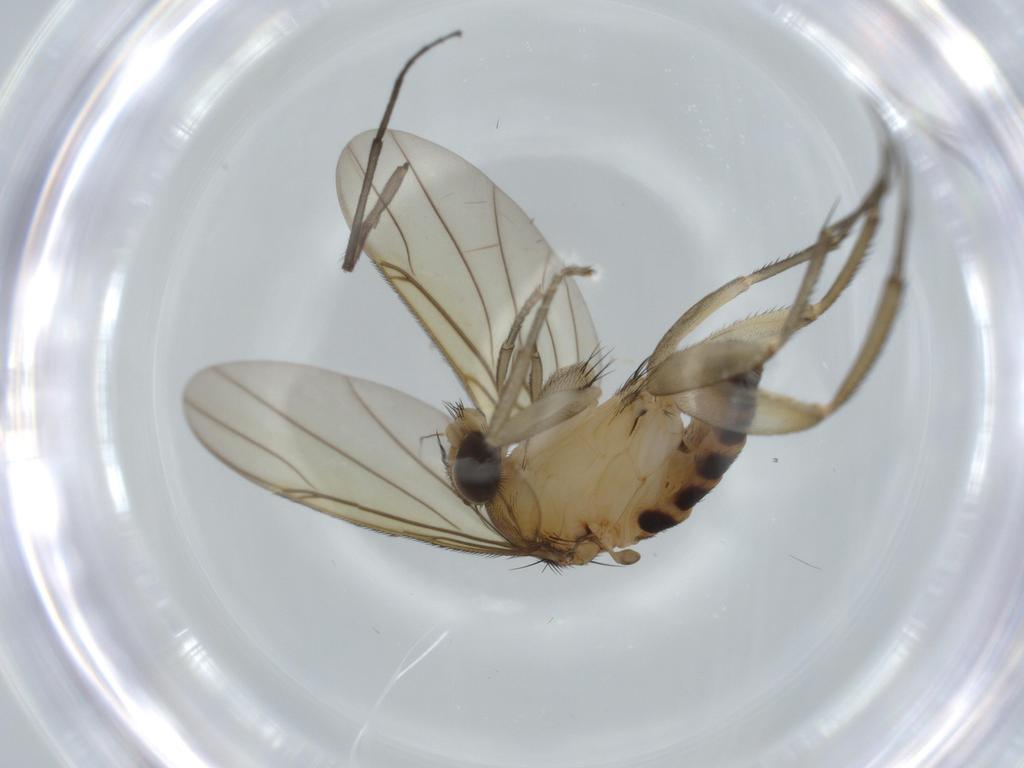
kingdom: Animalia
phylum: Arthropoda
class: Insecta
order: Diptera
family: Sciaridae
